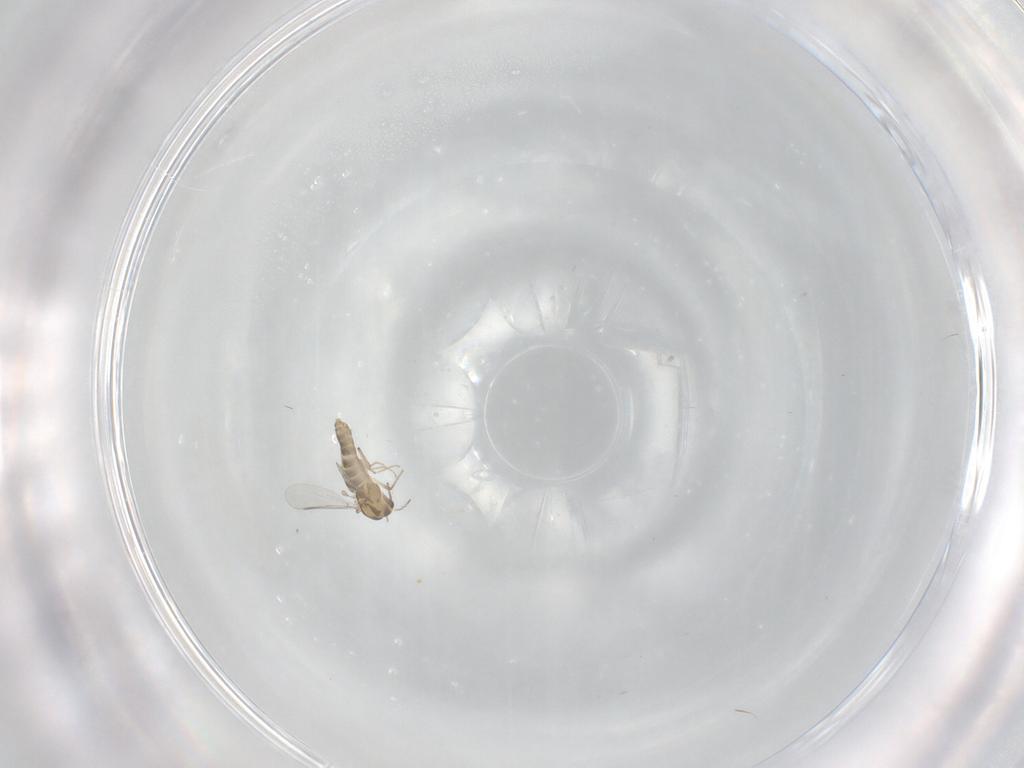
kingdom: Animalia
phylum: Arthropoda
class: Insecta
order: Diptera
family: Chironomidae
